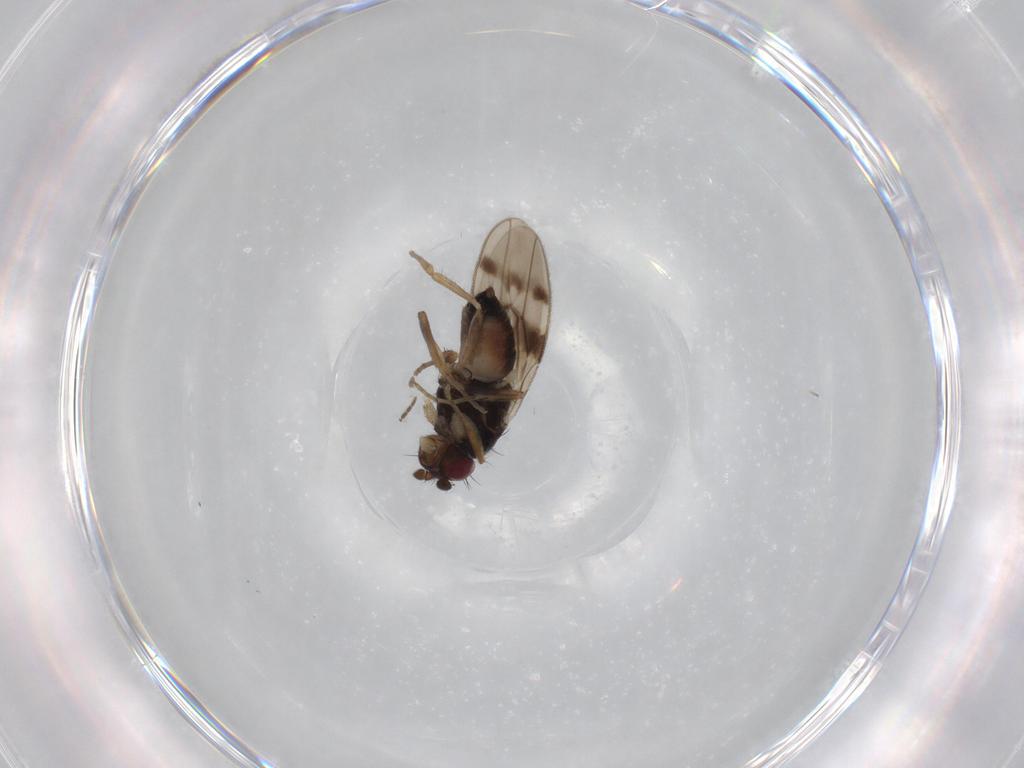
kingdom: Animalia
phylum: Arthropoda
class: Insecta
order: Diptera
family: Sphaeroceridae
